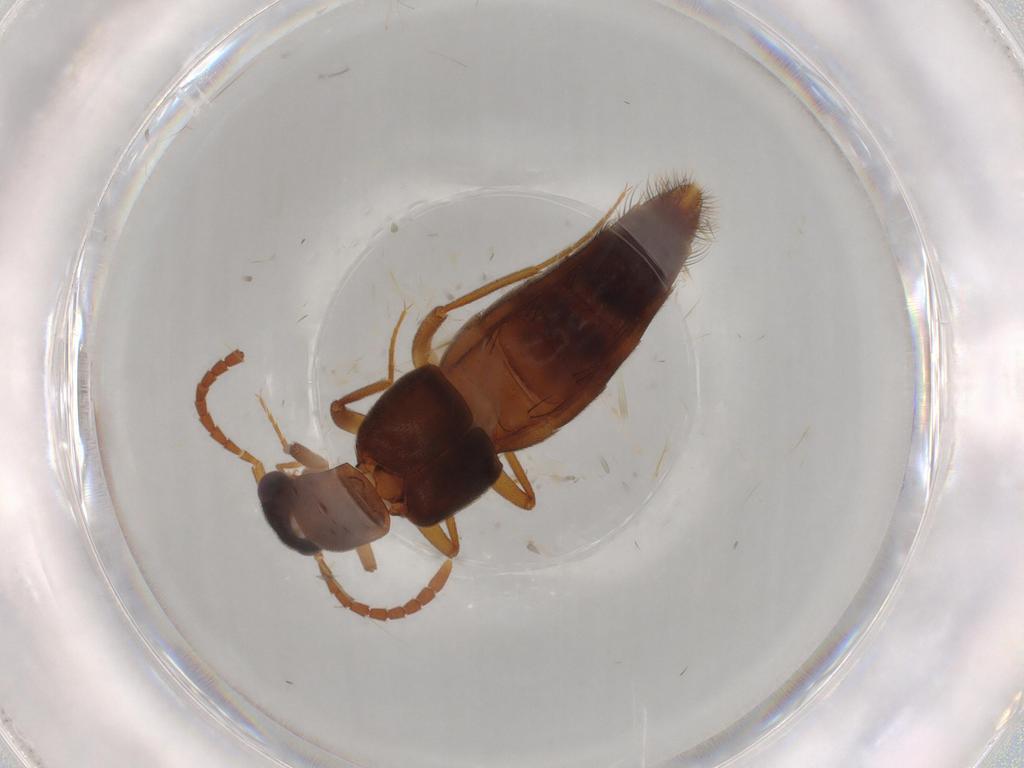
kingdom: Animalia
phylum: Arthropoda
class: Insecta
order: Coleoptera
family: Staphylinidae
